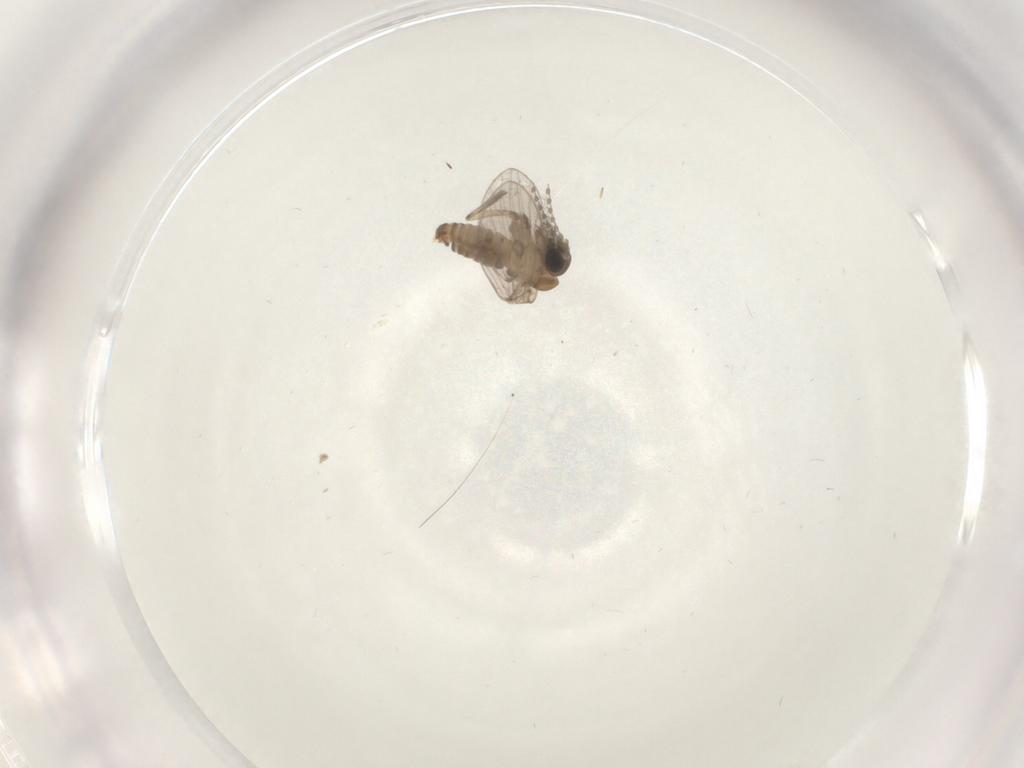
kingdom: Animalia
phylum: Arthropoda
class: Insecta
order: Diptera
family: Psychodidae
